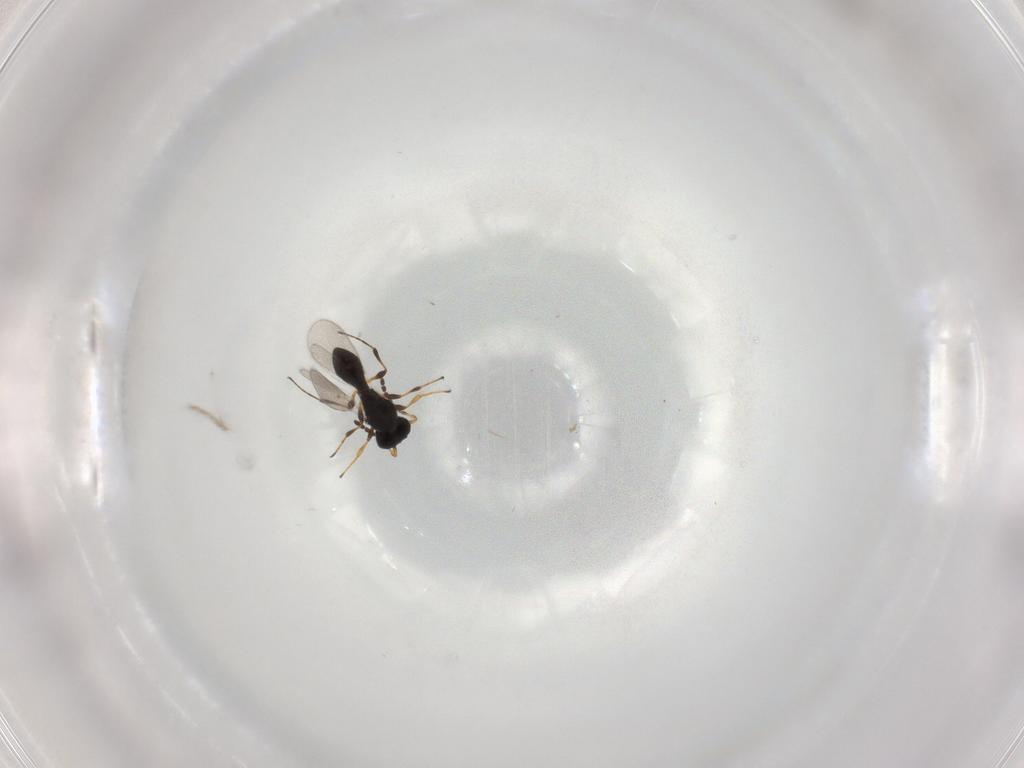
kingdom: Animalia
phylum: Arthropoda
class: Insecta
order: Hymenoptera
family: Platygastridae
